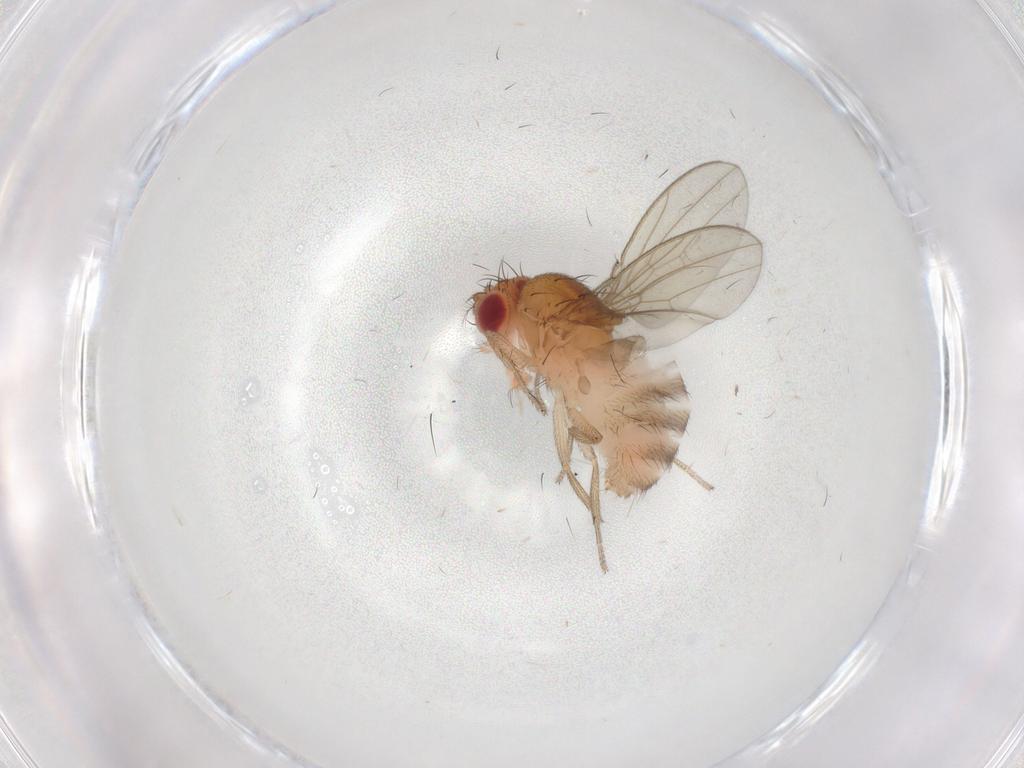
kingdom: Animalia
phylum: Arthropoda
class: Insecta
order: Diptera
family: Drosophilidae
